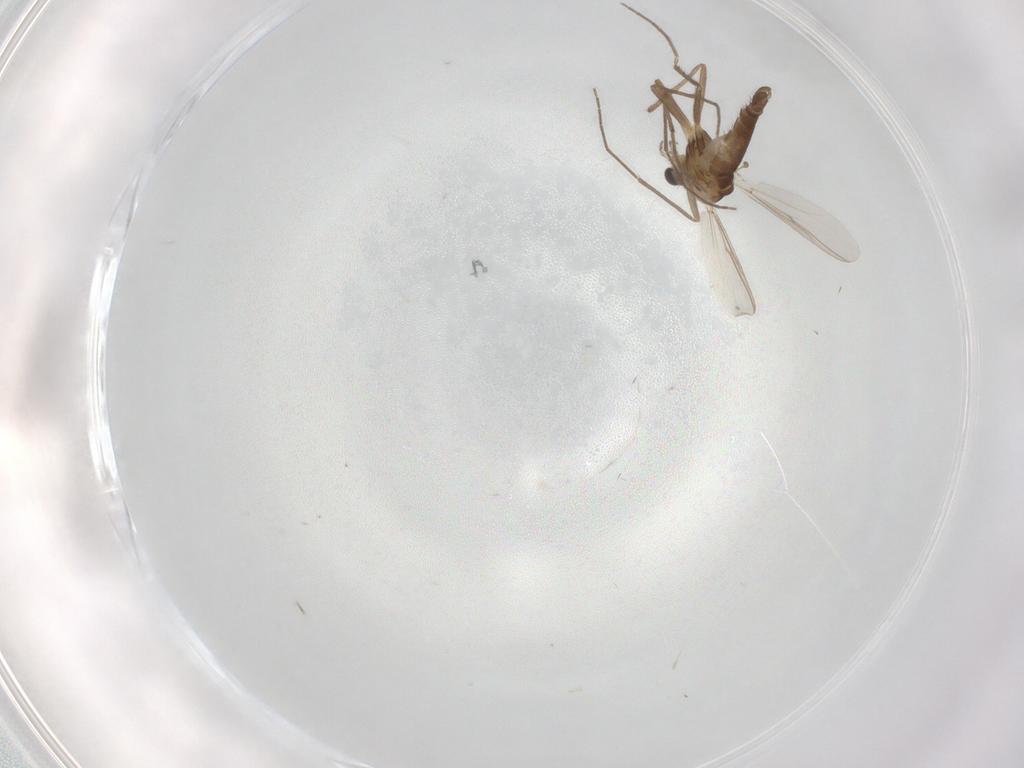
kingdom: Animalia
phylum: Arthropoda
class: Insecta
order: Diptera
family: Chironomidae
